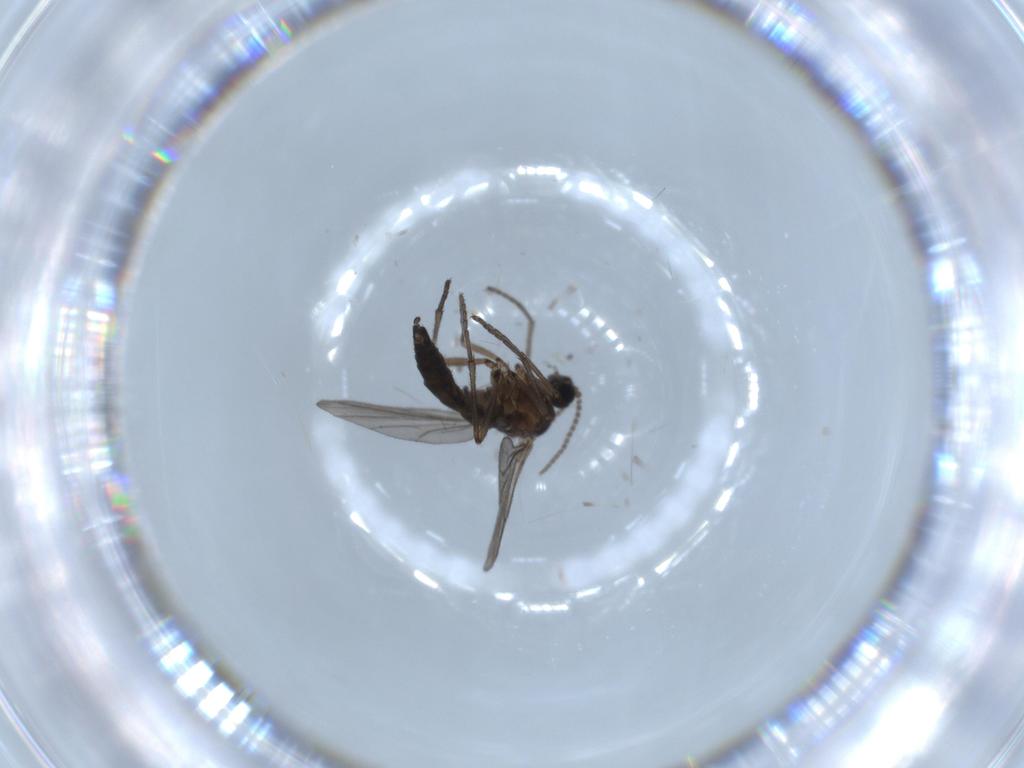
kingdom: Animalia
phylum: Arthropoda
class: Insecta
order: Diptera
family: Sciaridae
